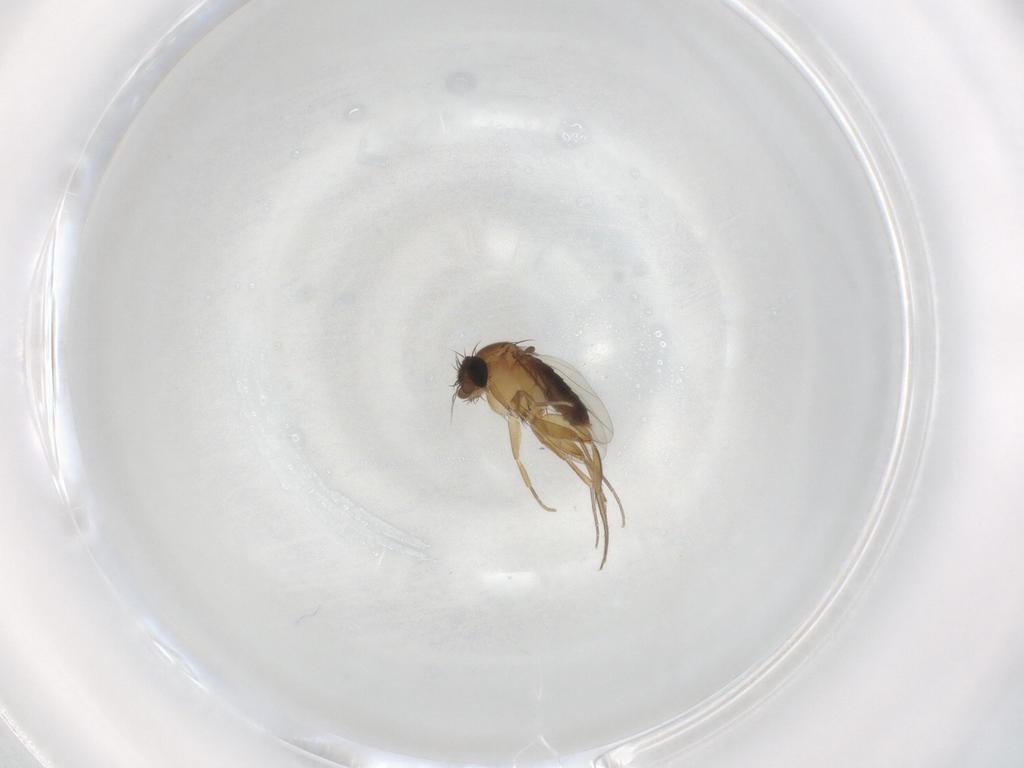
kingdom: Animalia
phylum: Arthropoda
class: Insecta
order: Diptera
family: Phoridae
